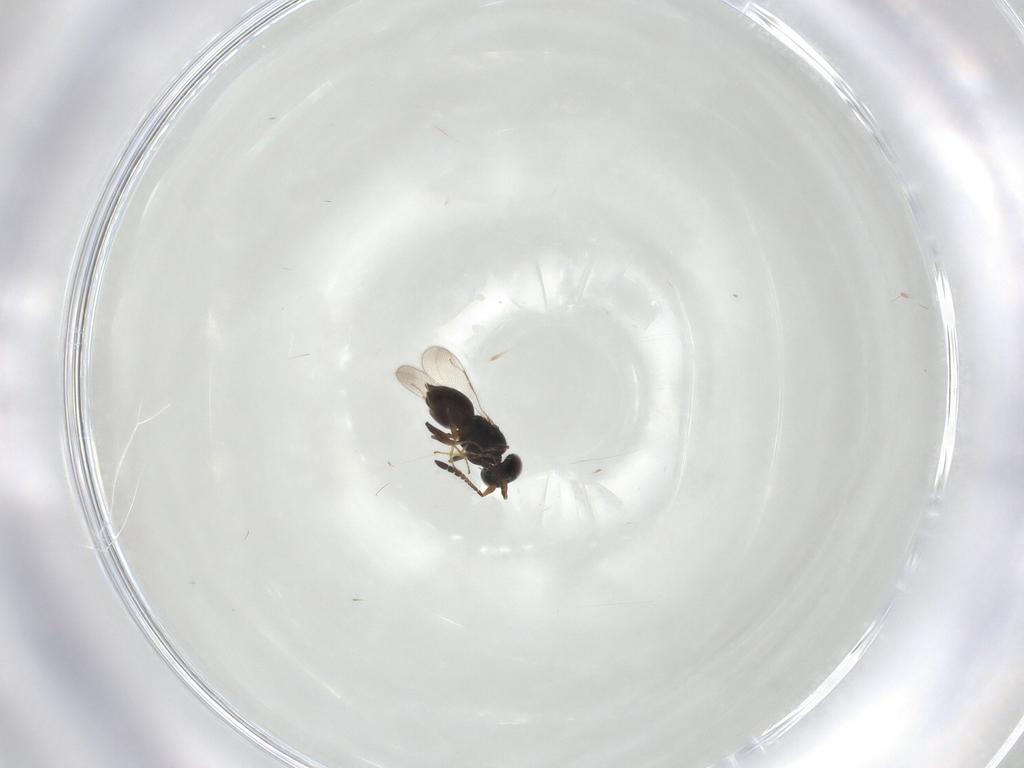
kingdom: Animalia
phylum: Arthropoda
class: Insecta
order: Hymenoptera
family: Ceraphronidae
